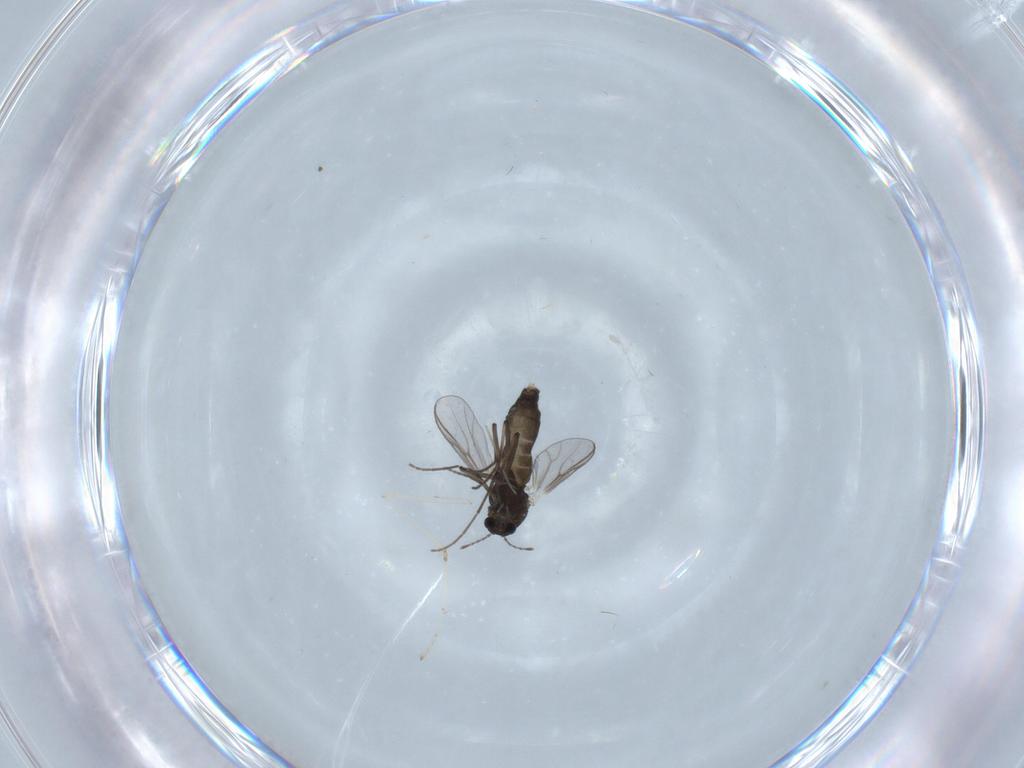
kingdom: Animalia
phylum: Arthropoda
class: Insecta
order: Diptera
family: Chironomidae
